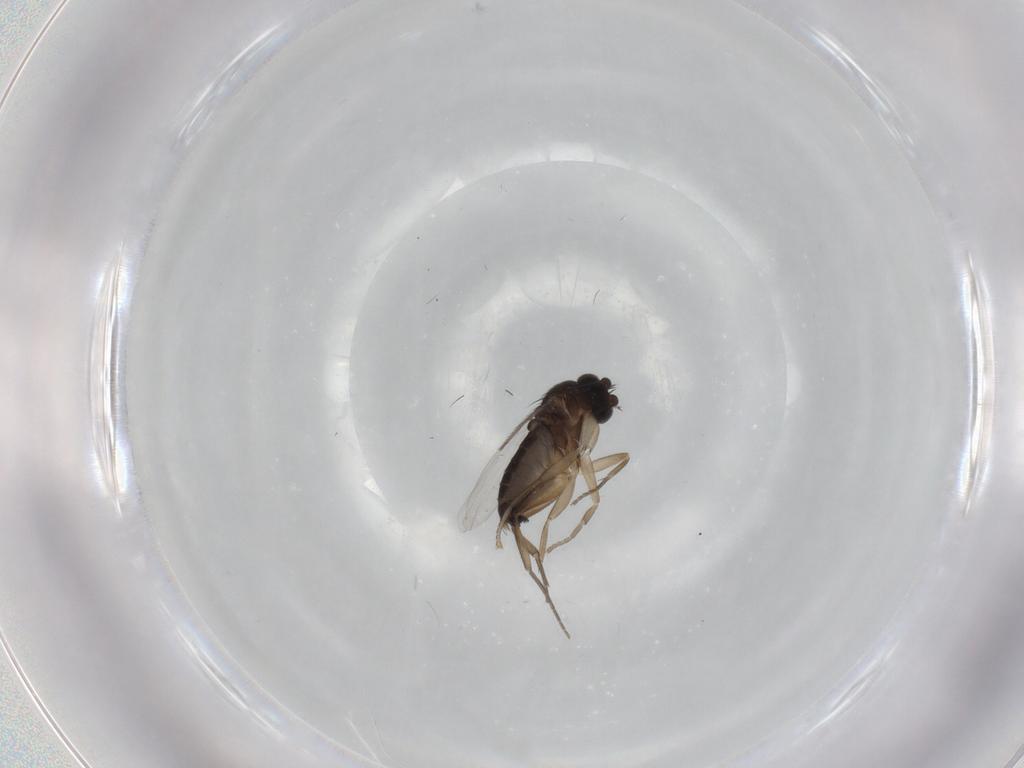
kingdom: Animalia
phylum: Arthropoda
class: Insecta
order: Diptera
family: Phoridae
